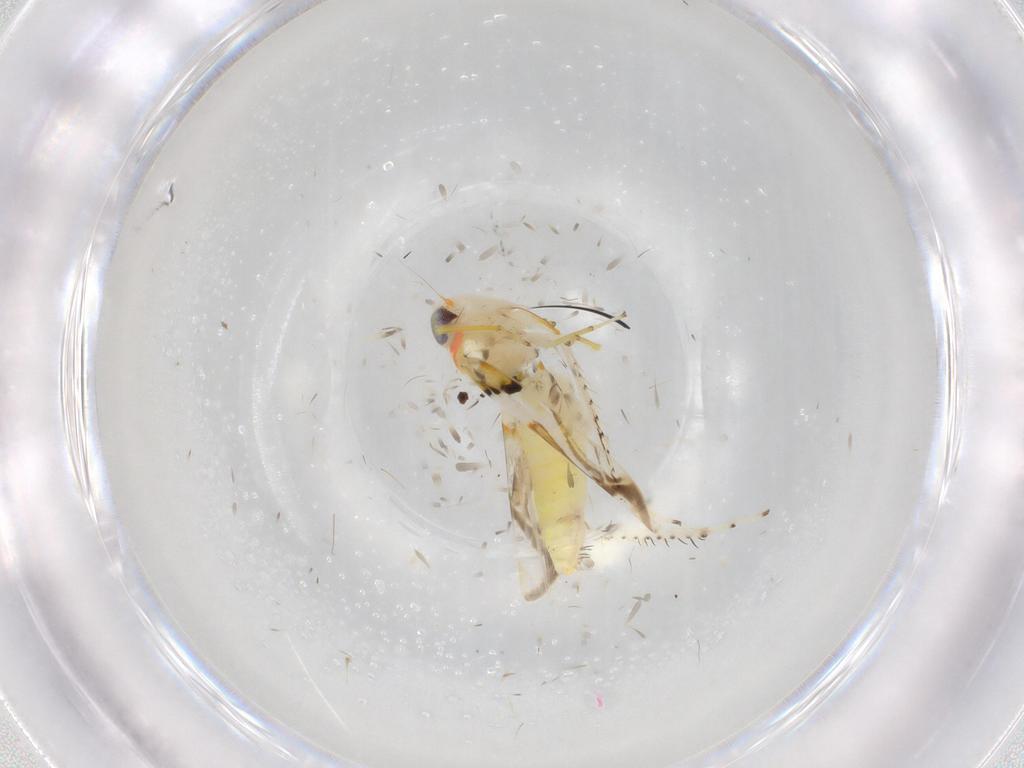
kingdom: Animalia
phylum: Arthropoda
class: Insecta
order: Hemiptera
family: Cicadellidae
